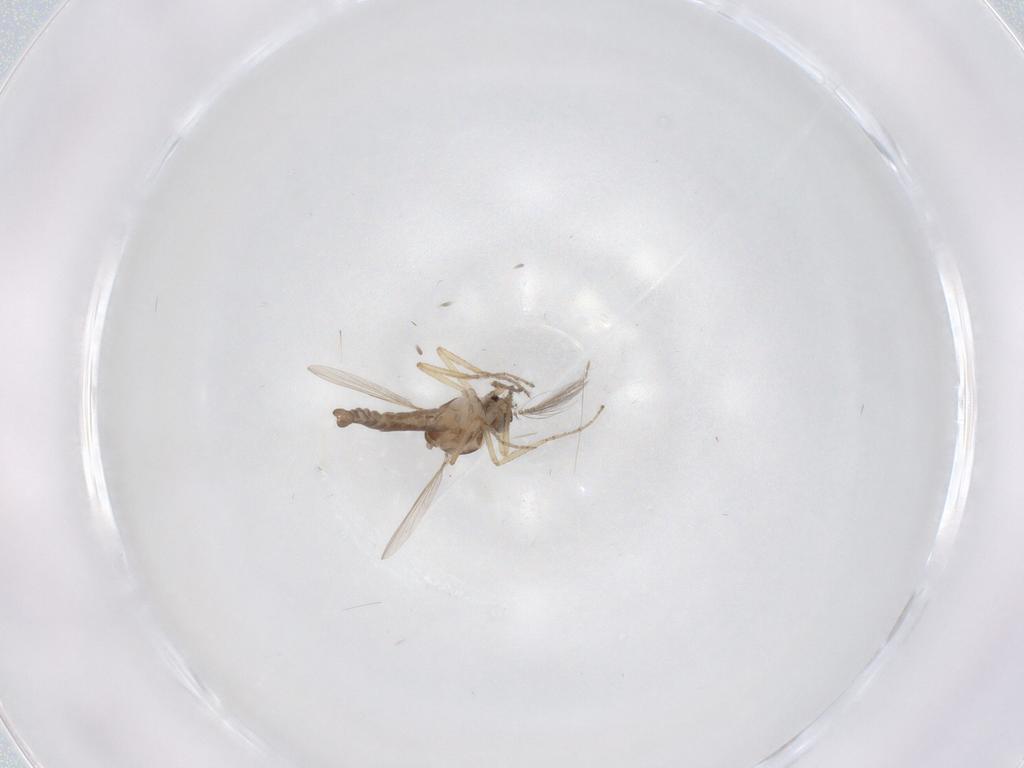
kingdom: Animalia
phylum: Arthropoda
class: Insecta
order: Diptera
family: Ceratopogonidae
